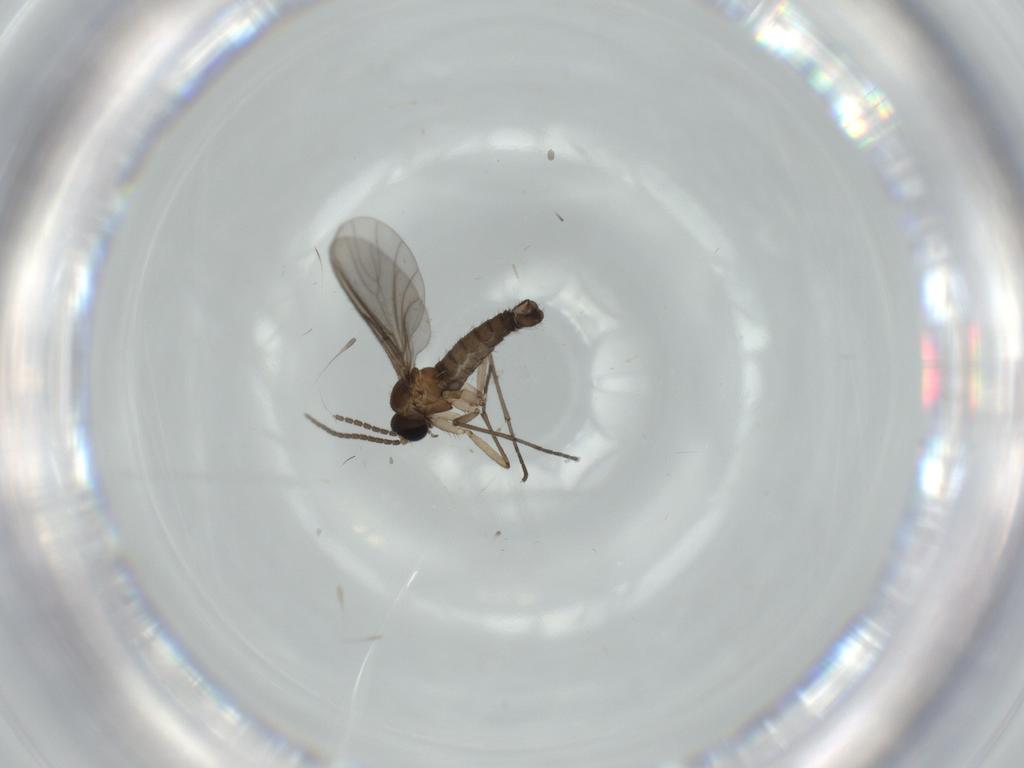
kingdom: Animalia
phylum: Arthropoda
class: Insecta
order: Diptera
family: Sciaridae
